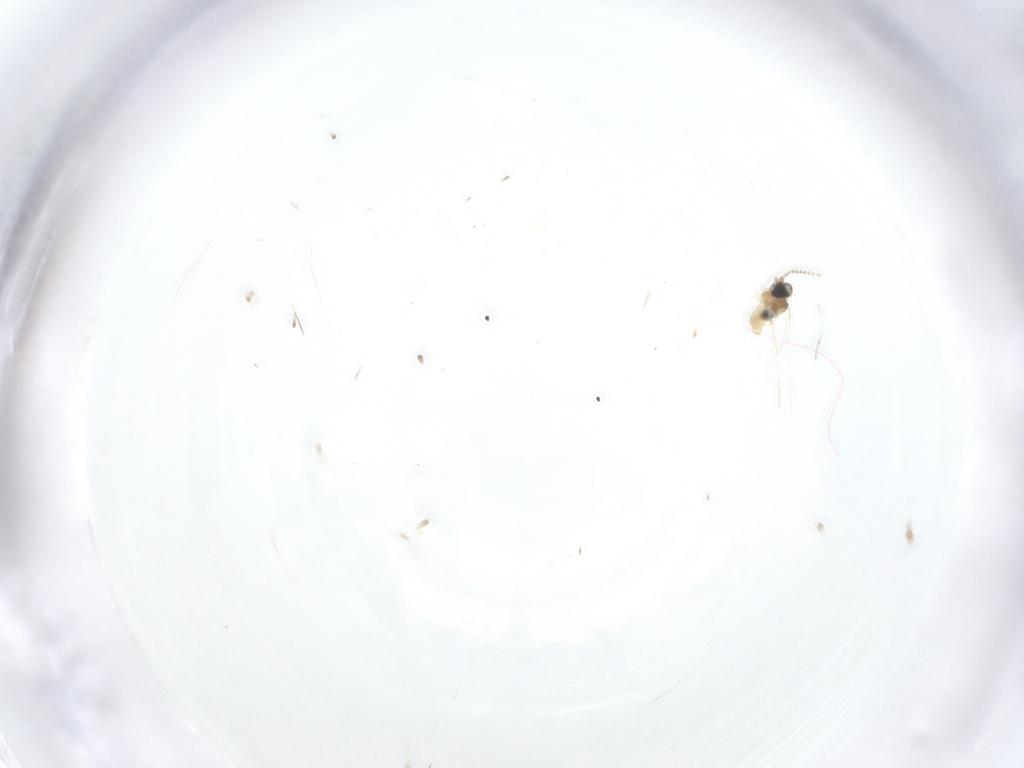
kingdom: Animalia
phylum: Arthropoda
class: Insecta
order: Diptera
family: Cecidomyiidae
